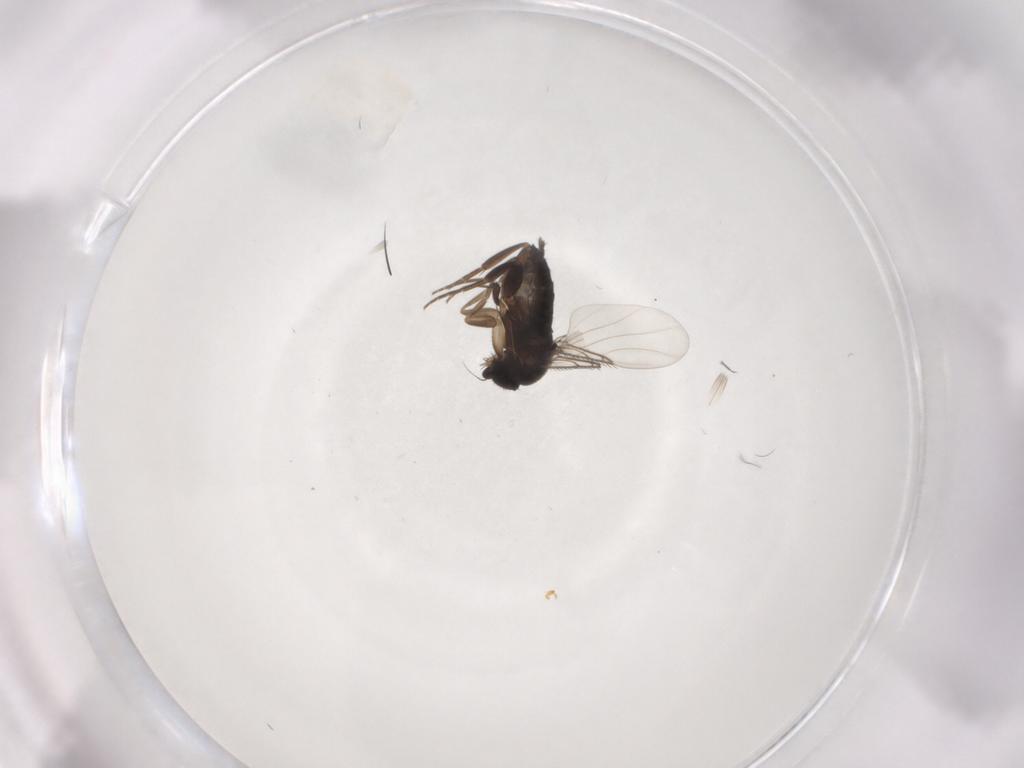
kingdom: Animalia
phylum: Arthropoda
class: Insecta
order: Diptera
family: Phoridae
